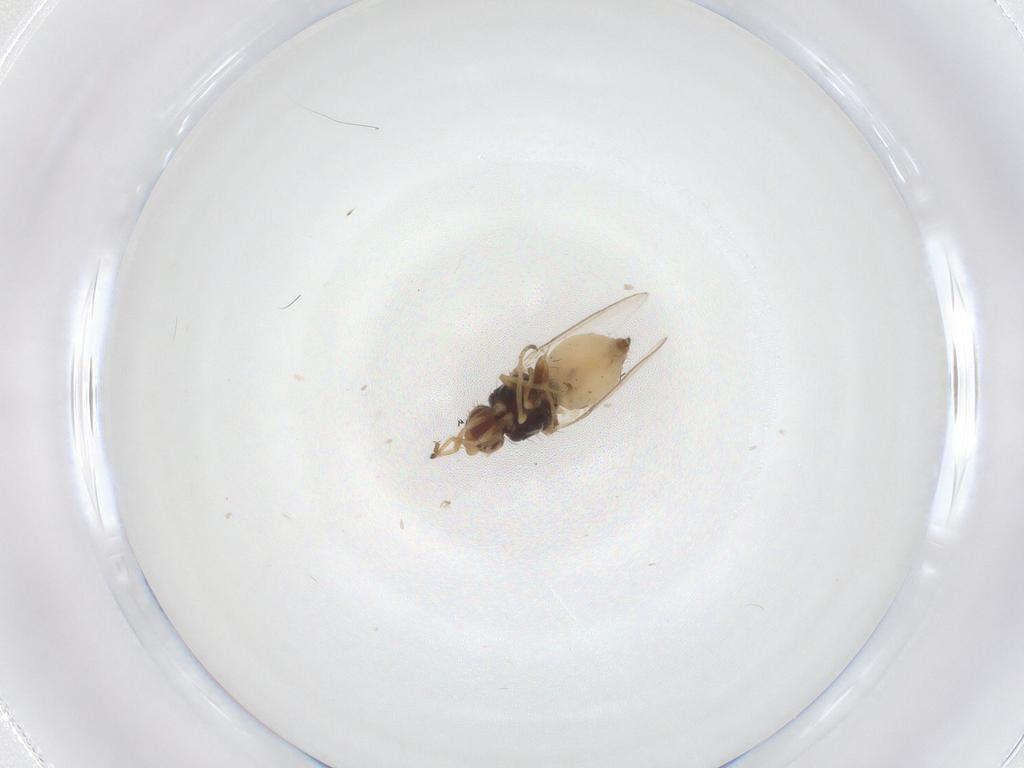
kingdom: Animalia
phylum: Arthropoda
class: Insecta
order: Diptera
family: Chloropidae
